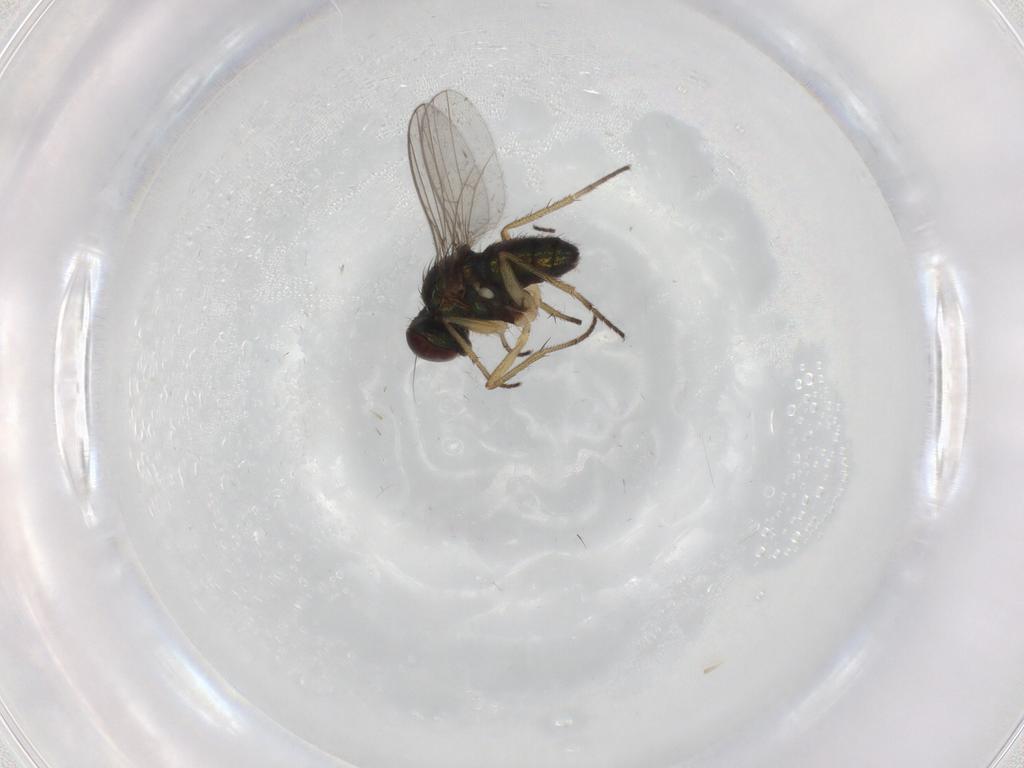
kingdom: Animalia
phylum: Arthropoda
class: Insecta
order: Diptera
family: Dolichopodidae
